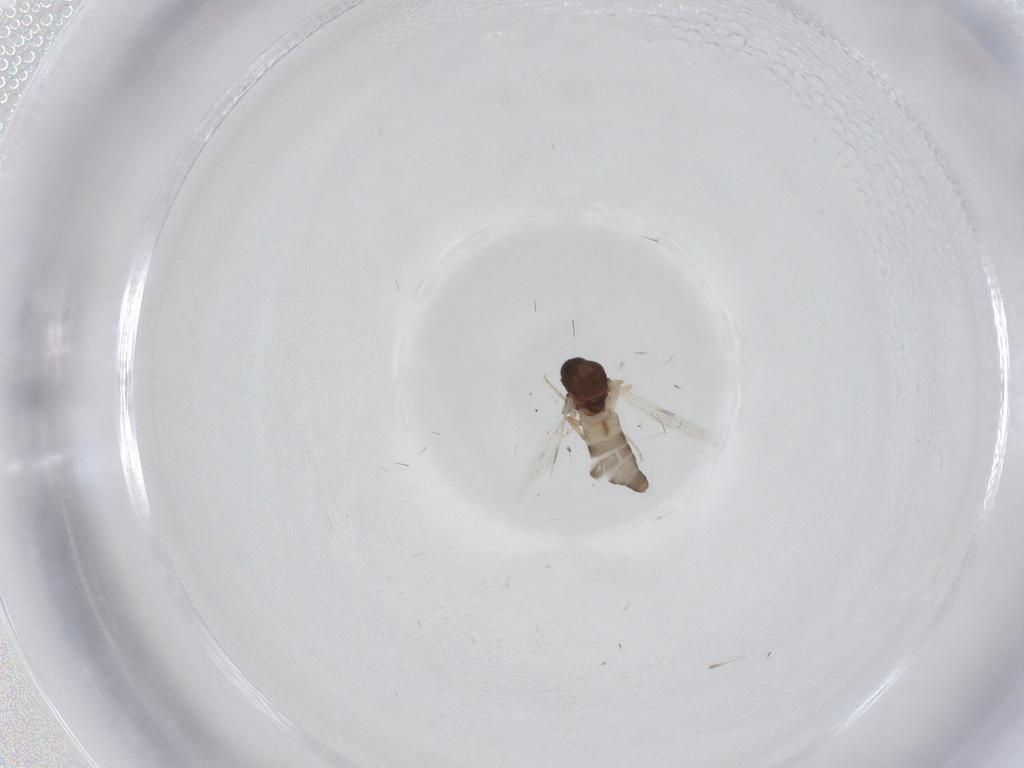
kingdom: Animalia
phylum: Arthropoda
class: Insecta
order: Diptera
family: Ceratopogonidae
